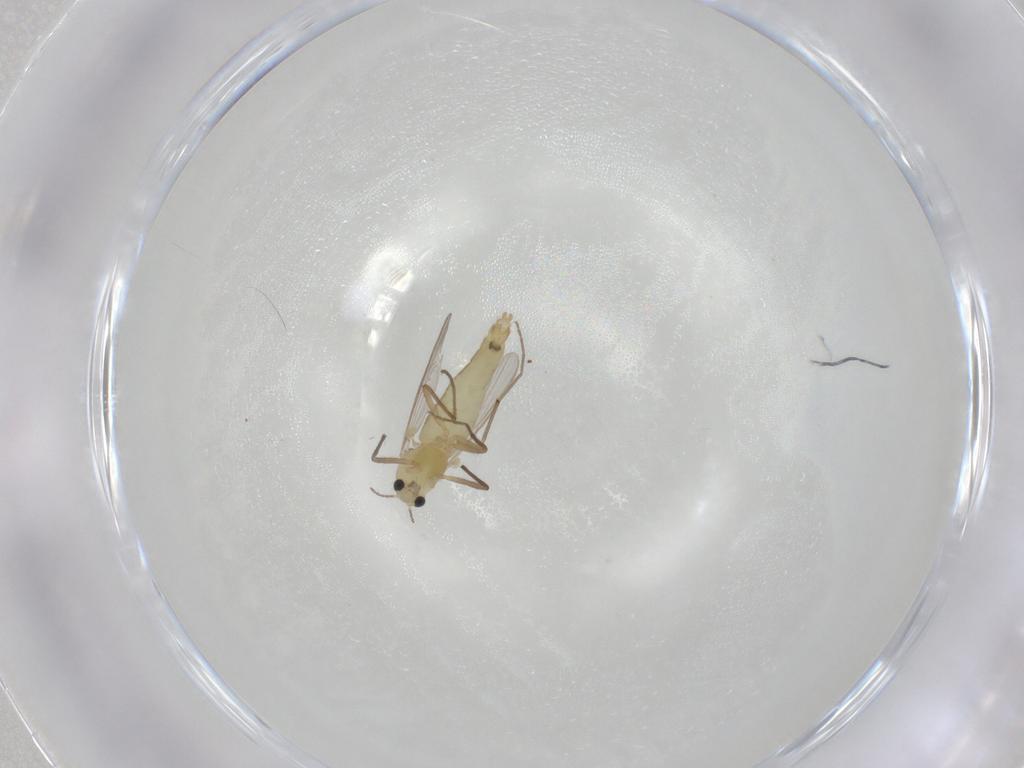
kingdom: Animalia
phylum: Arthropoda
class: Insecta
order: Diptera
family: Chironomidae
